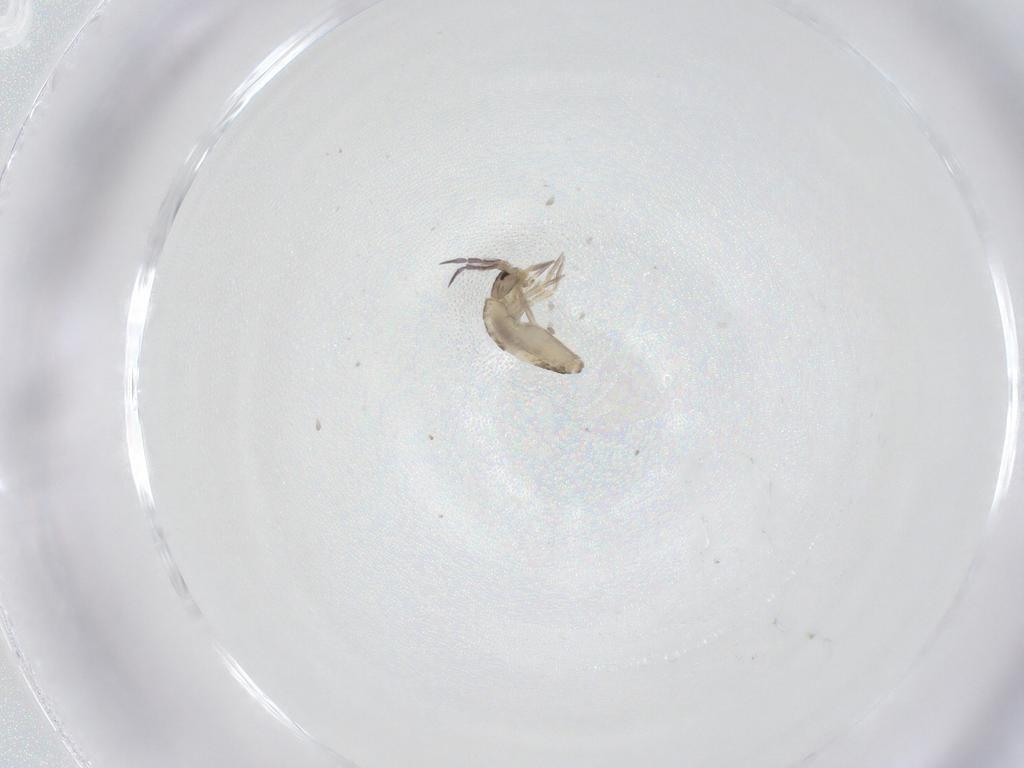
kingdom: Animalia
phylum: Arthropoda
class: Collembola
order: Entomobryomorpha
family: Entomobryidae
